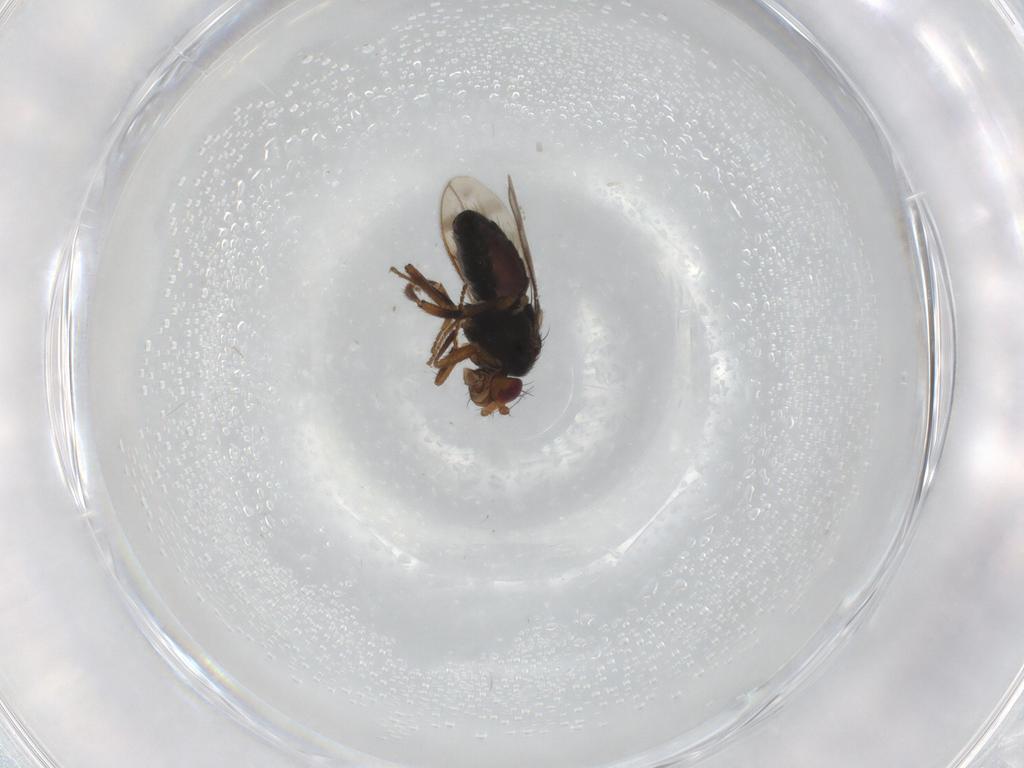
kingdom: Animalia
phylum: Arthropoda
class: Insecta
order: Diptera
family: Sphaeroceridae
